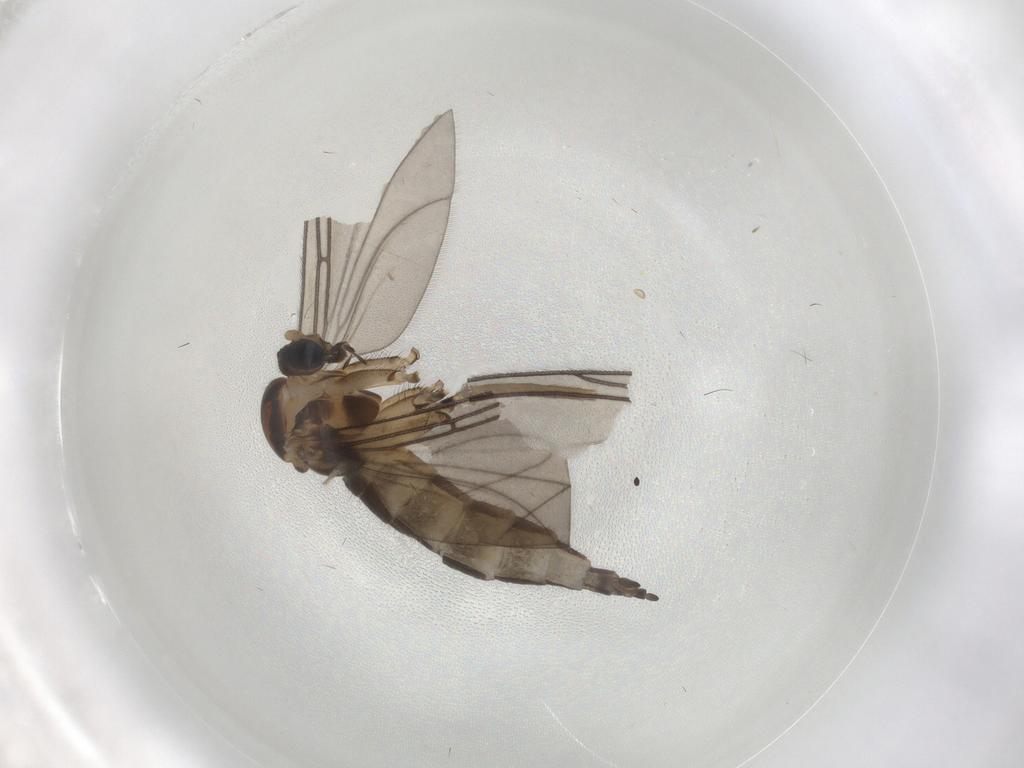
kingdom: Animalia
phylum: Arthropoda
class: Insecta
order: Diptera
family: Sciaridae
